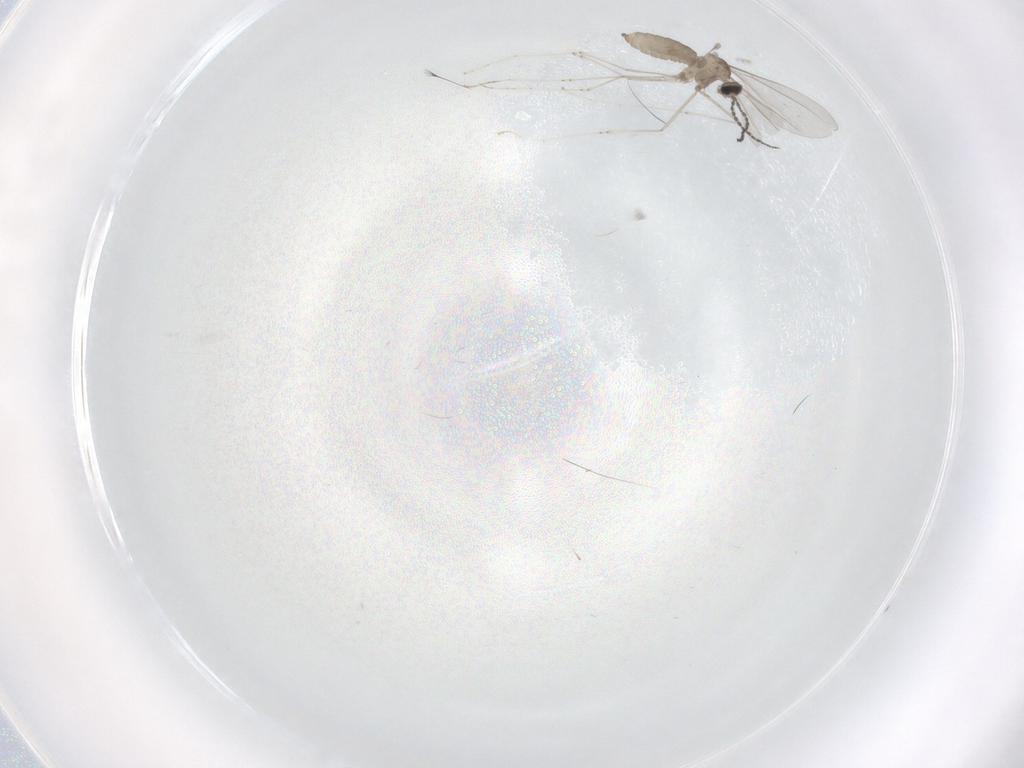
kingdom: Animalia
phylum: Arthropoda
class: Insecta
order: Diptera
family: Cecidomyiidae
